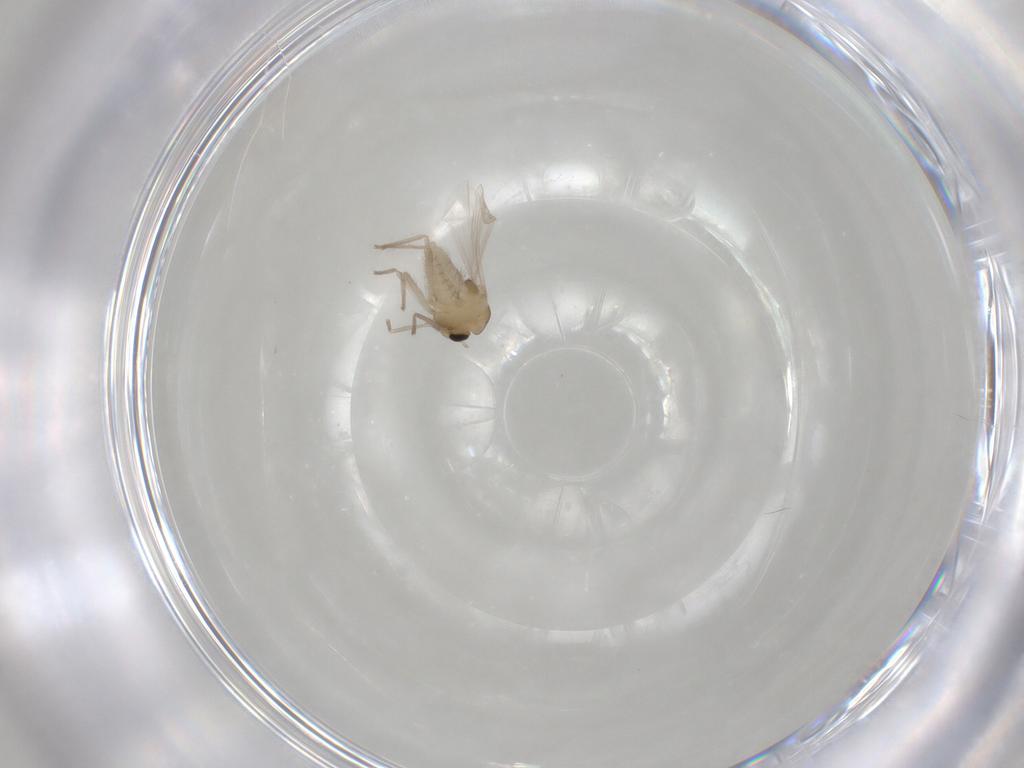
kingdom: Animalia
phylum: Arthropoda
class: Insecta
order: Diptera
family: Chironomidae
